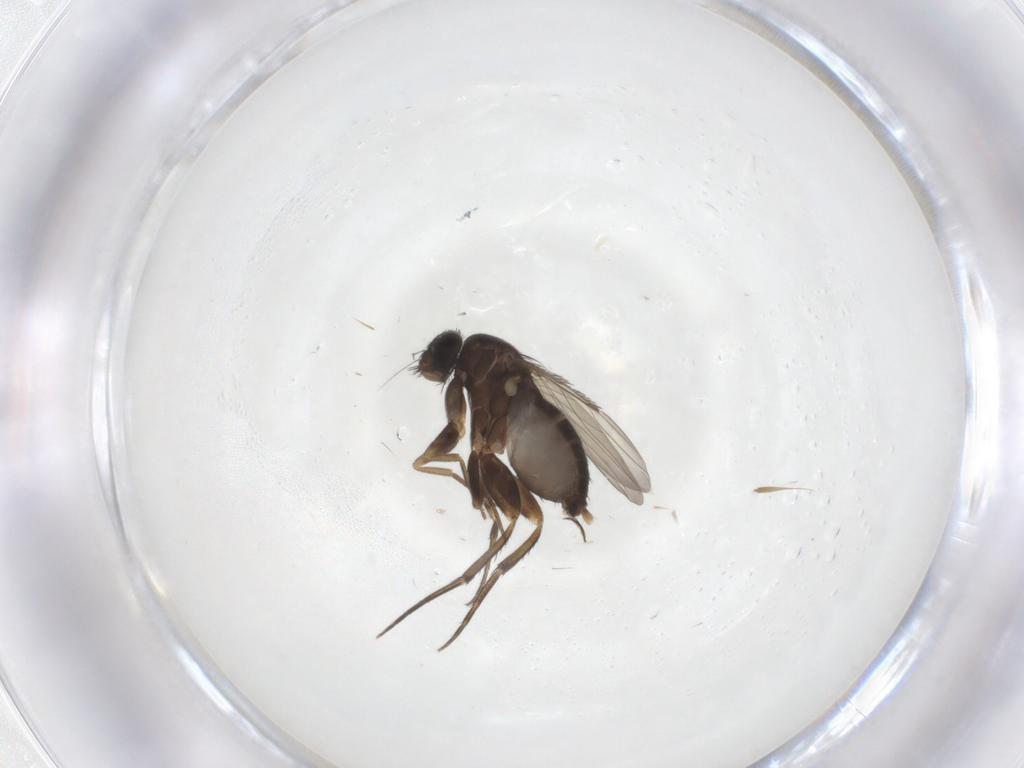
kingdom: Animalia
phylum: Arthropoda
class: Insecta
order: Diptera
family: Phoridae
